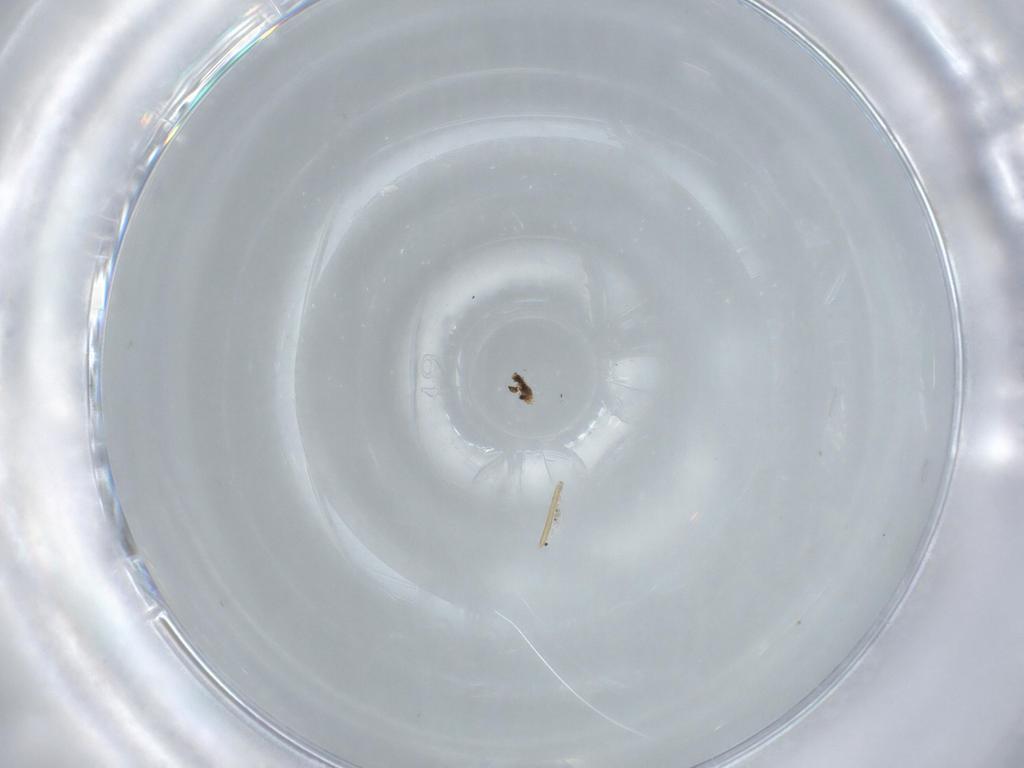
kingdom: Animalia
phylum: Arthropoda
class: Insecta
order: Diptera
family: Chironomidae
